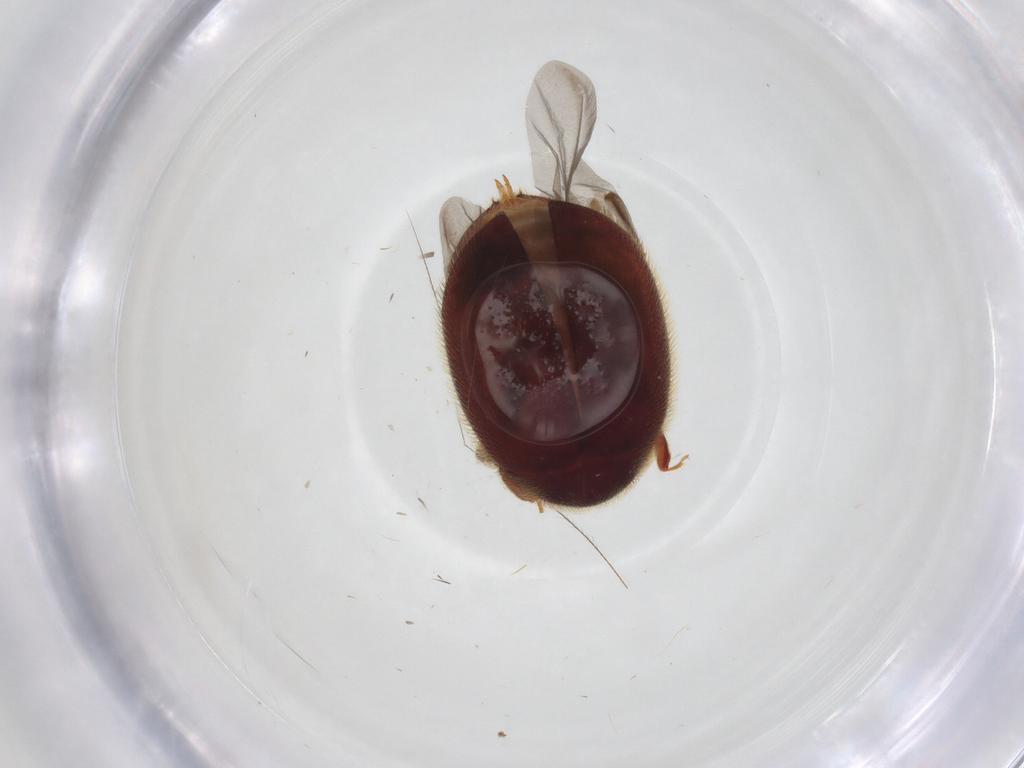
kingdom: Animalia
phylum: Arthropoda
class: Insecta
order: Coleoptera
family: Limnichidae
